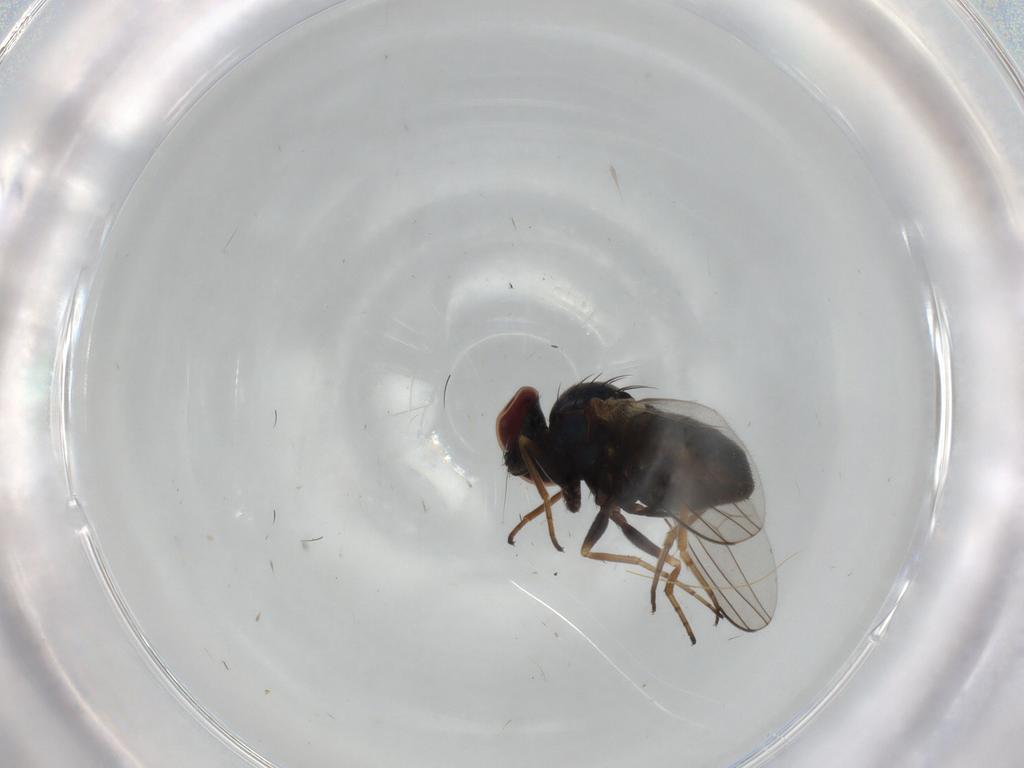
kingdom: Animalia
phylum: Arthropoda
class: Insecta
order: Diptera
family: Dolichopodidae
